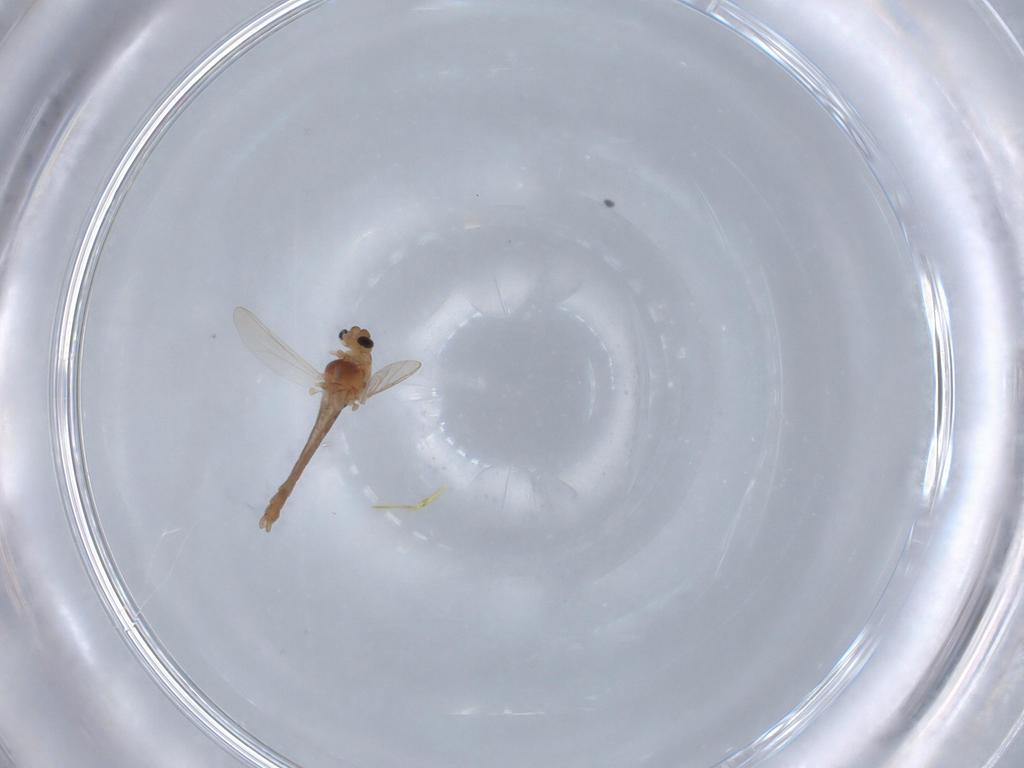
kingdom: Animalia
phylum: Arthropoda
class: Insecta
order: Diptera
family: Chironomidae
